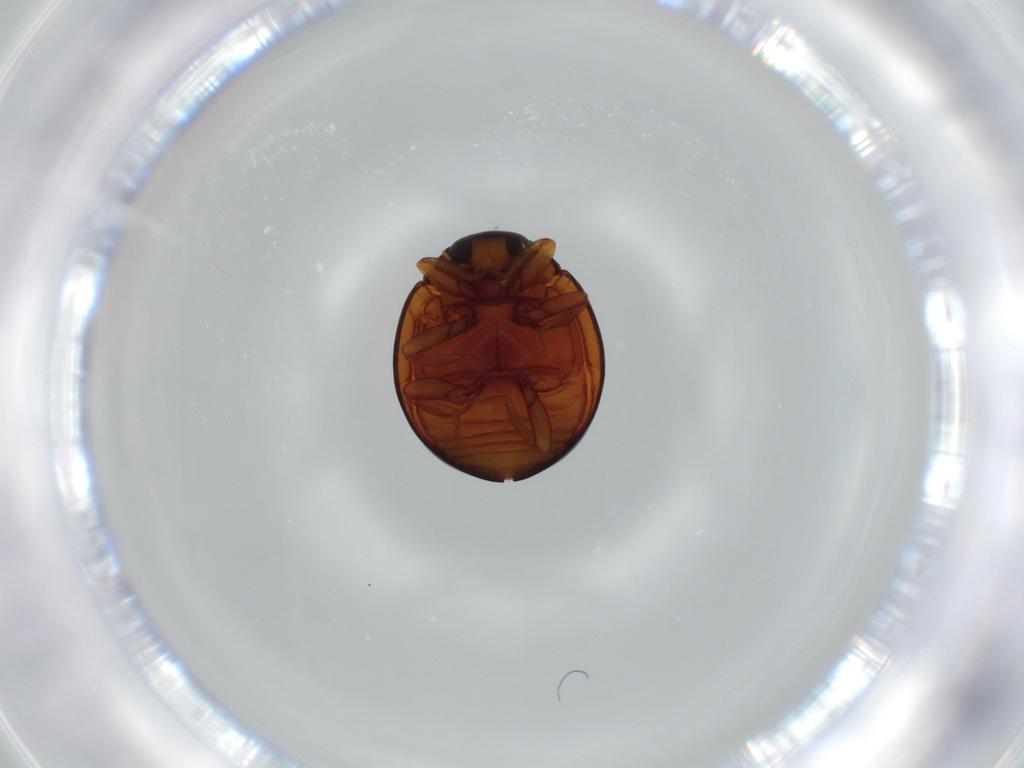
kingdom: Animalia
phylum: Arthropoda
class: Insecta
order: Coleoptera
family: Coccinellidae
